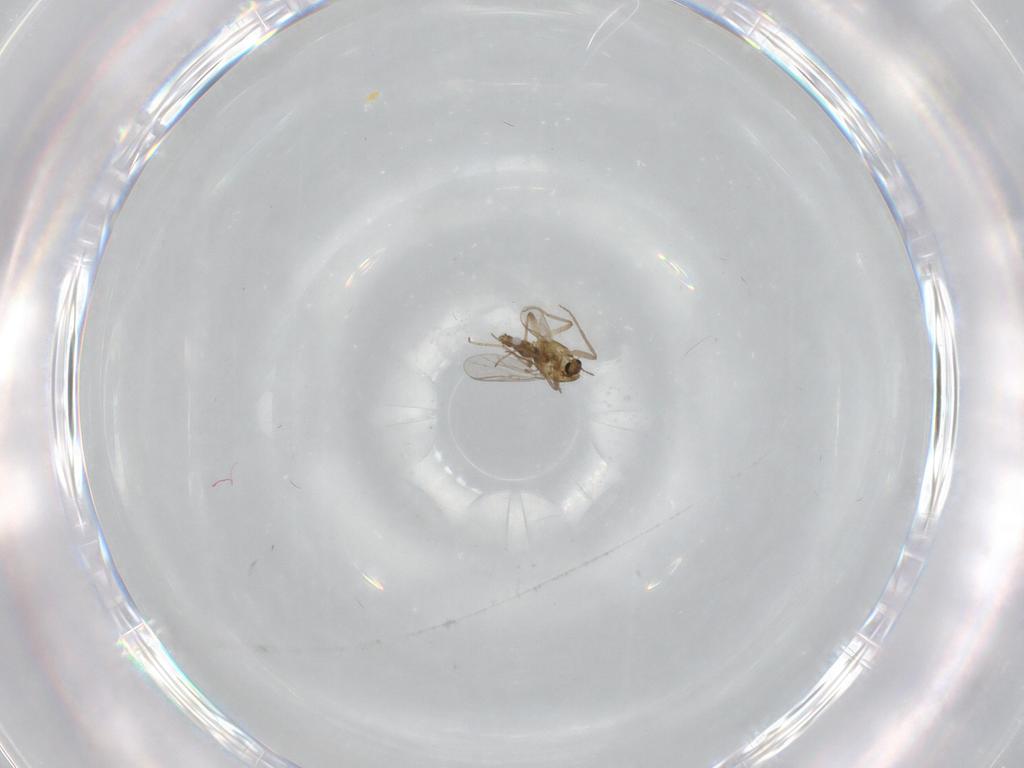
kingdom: Animalia
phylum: Arthropoda
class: Insecta
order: Diptera
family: Chironomidae
